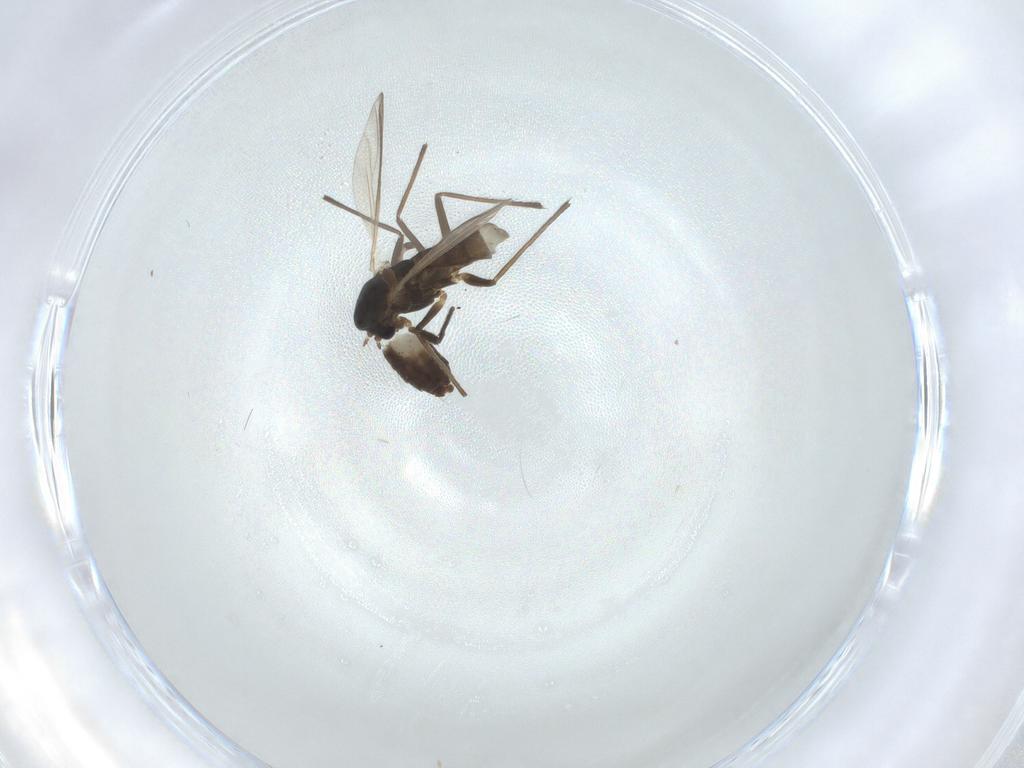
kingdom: Animalia
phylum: Arthropoda
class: Insecta
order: Diptera
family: Chironomidae
